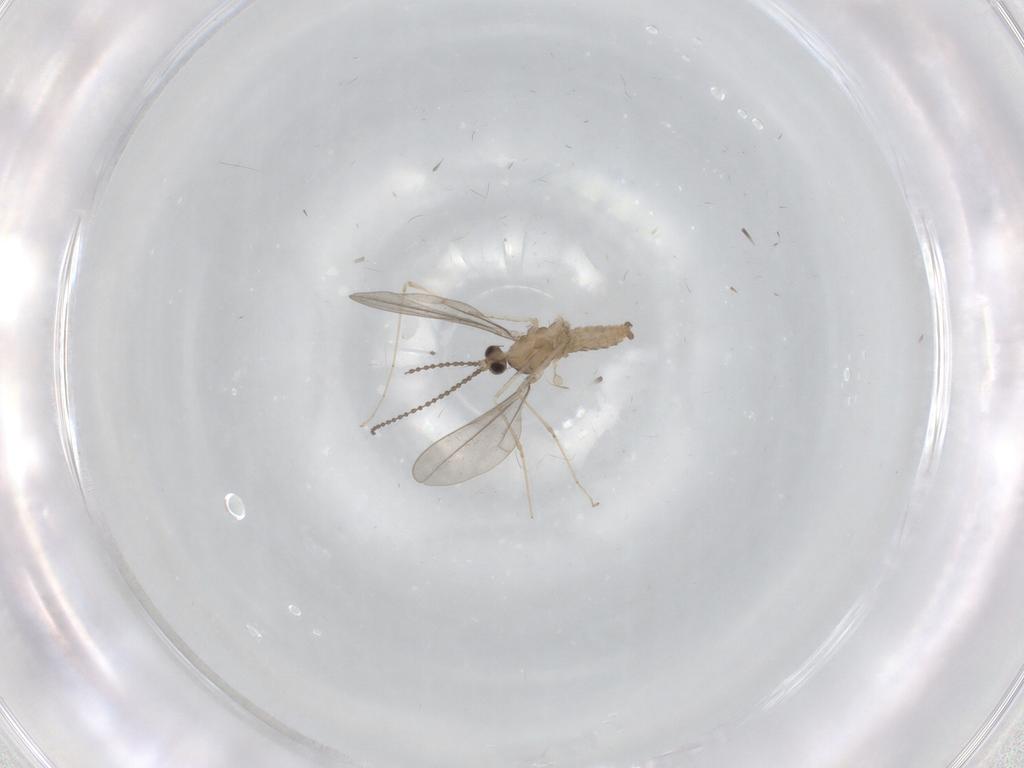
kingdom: Animalia
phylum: Arthropoda
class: Insecta
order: Diptera
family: Cecidomyiidae
